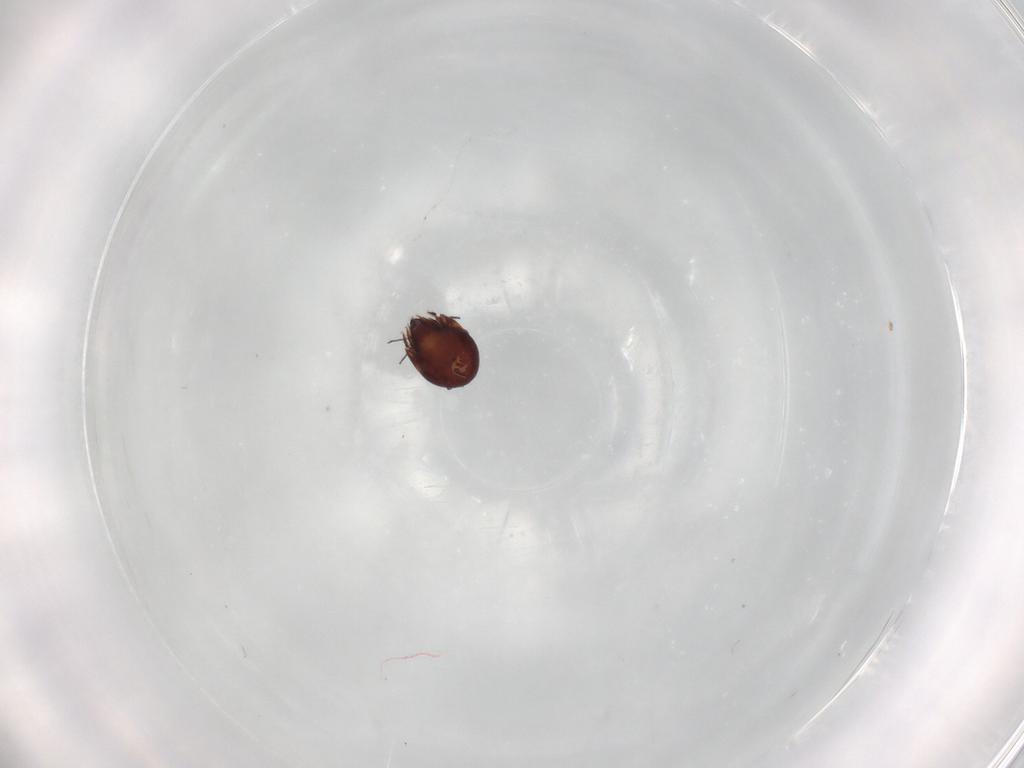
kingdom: Animalia
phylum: Arthropoda
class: Arachnida
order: Sarcoptiformes
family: Humerobatidae
